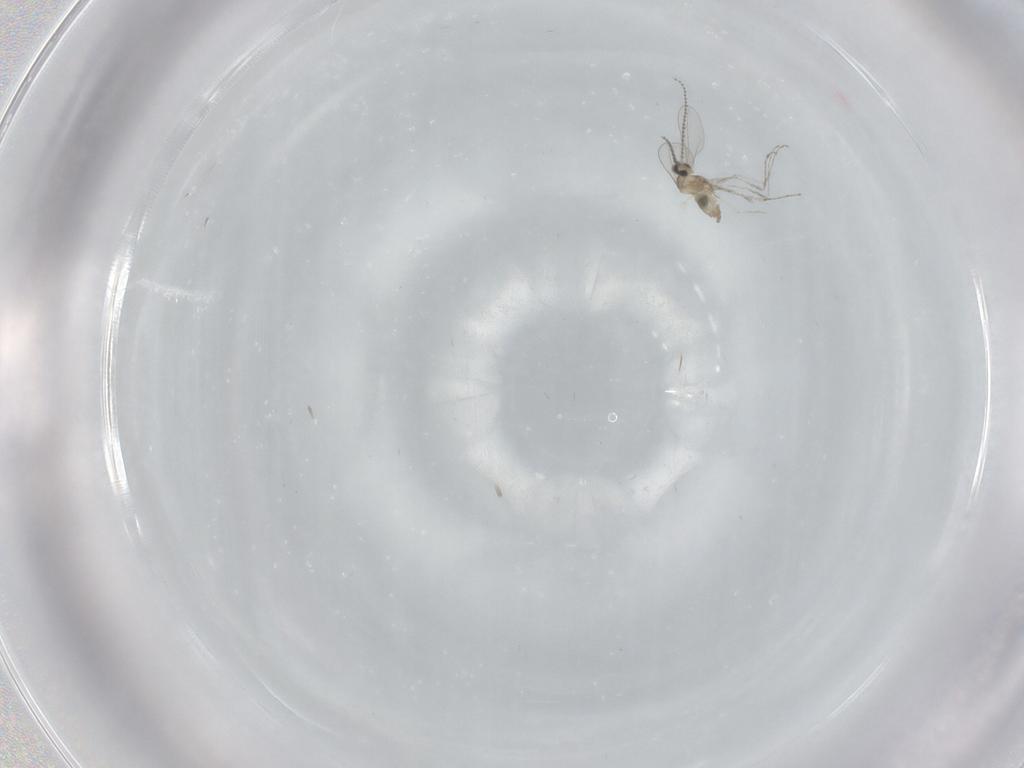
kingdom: Animalia
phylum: Arthropoda
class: Insecta
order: Diptera
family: Cecidomyiidae
